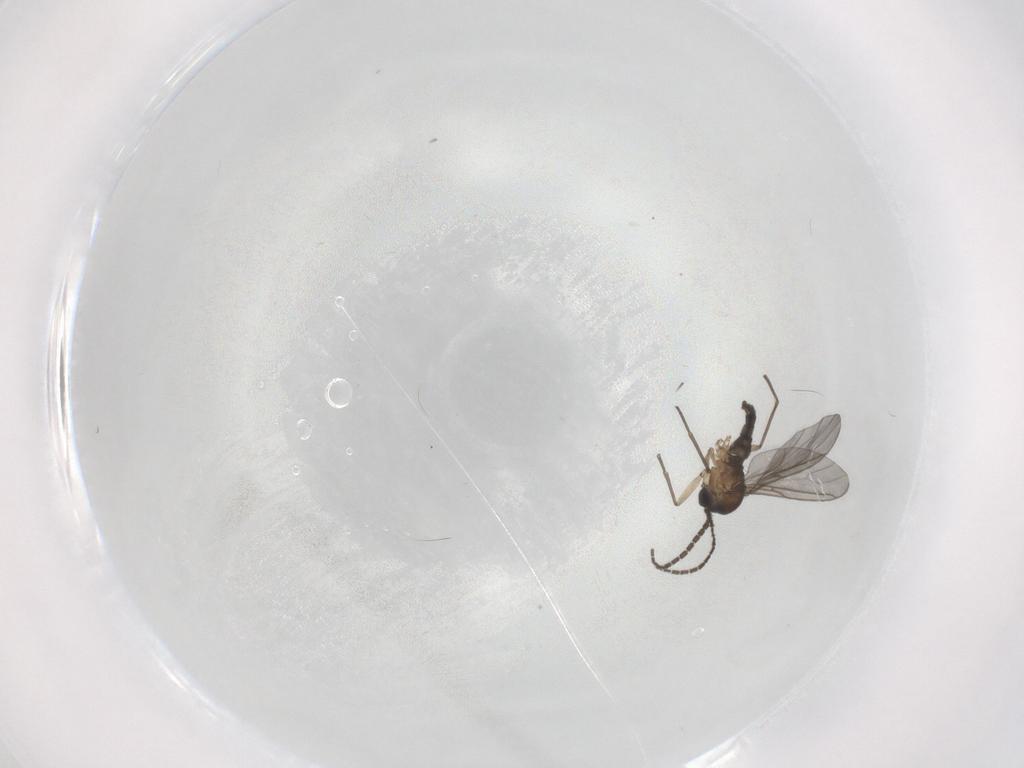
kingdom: Animalia
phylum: Arthropoda
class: Insecta
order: Diptera
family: Sciaridae
